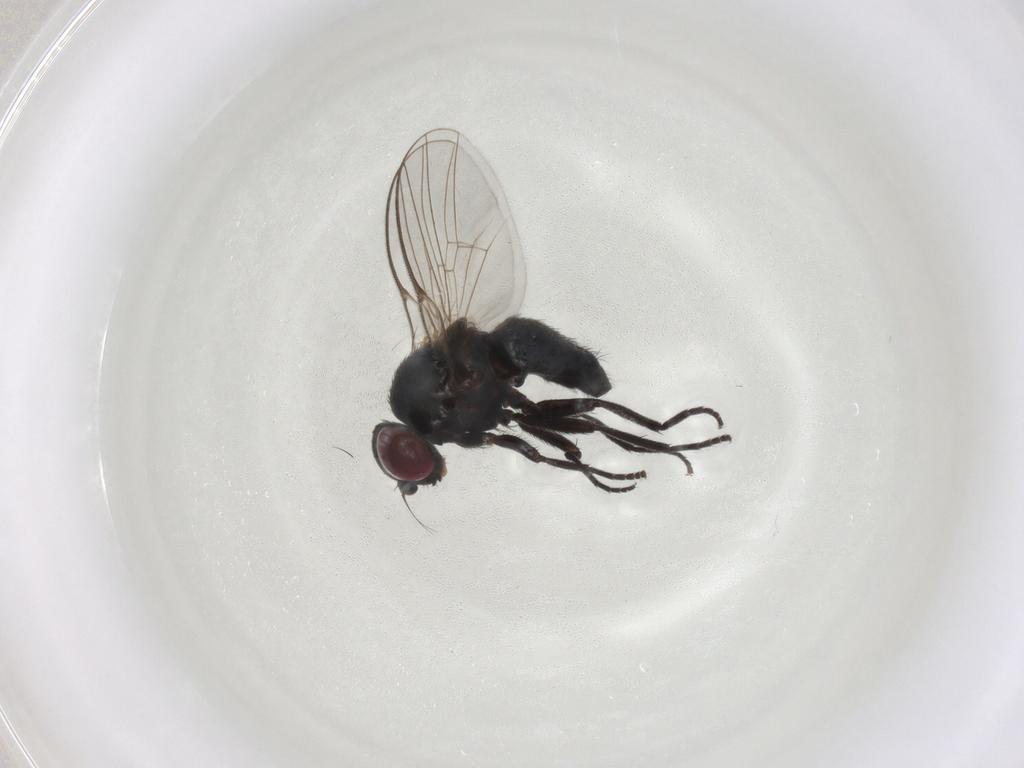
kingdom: Animalia
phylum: Arthropoda
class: Insecta
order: Diptera
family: Agromyzidae
